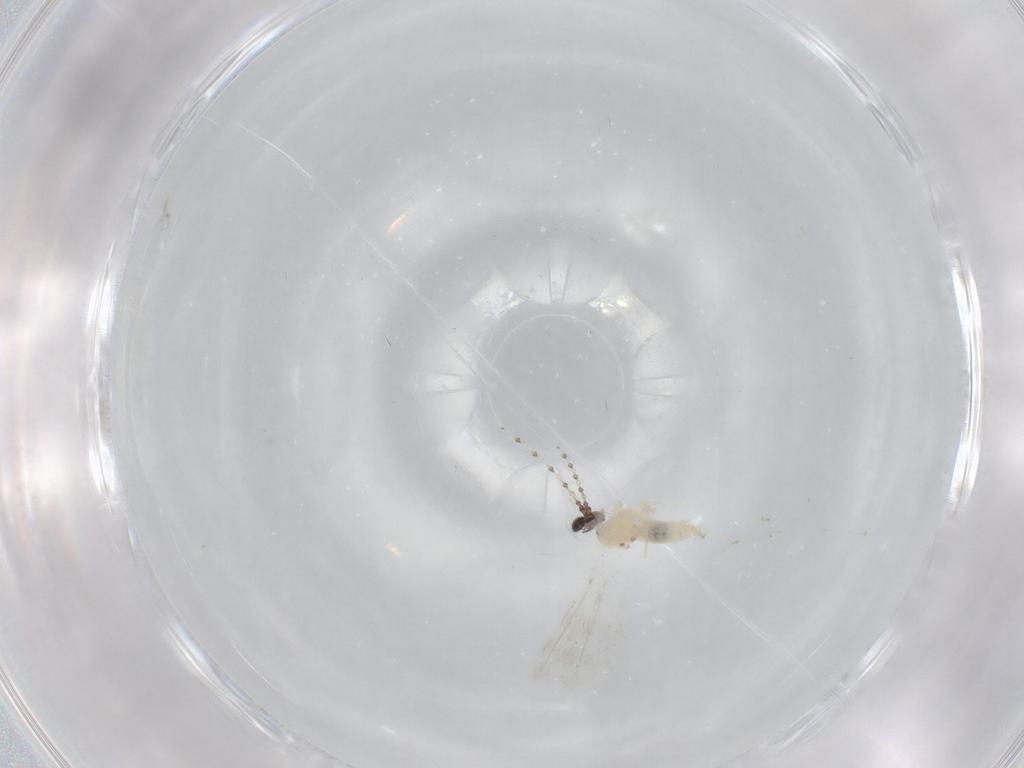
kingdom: Animalia
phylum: Arthropoda
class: Insecta
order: Diptera
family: Cecidomyiidae
